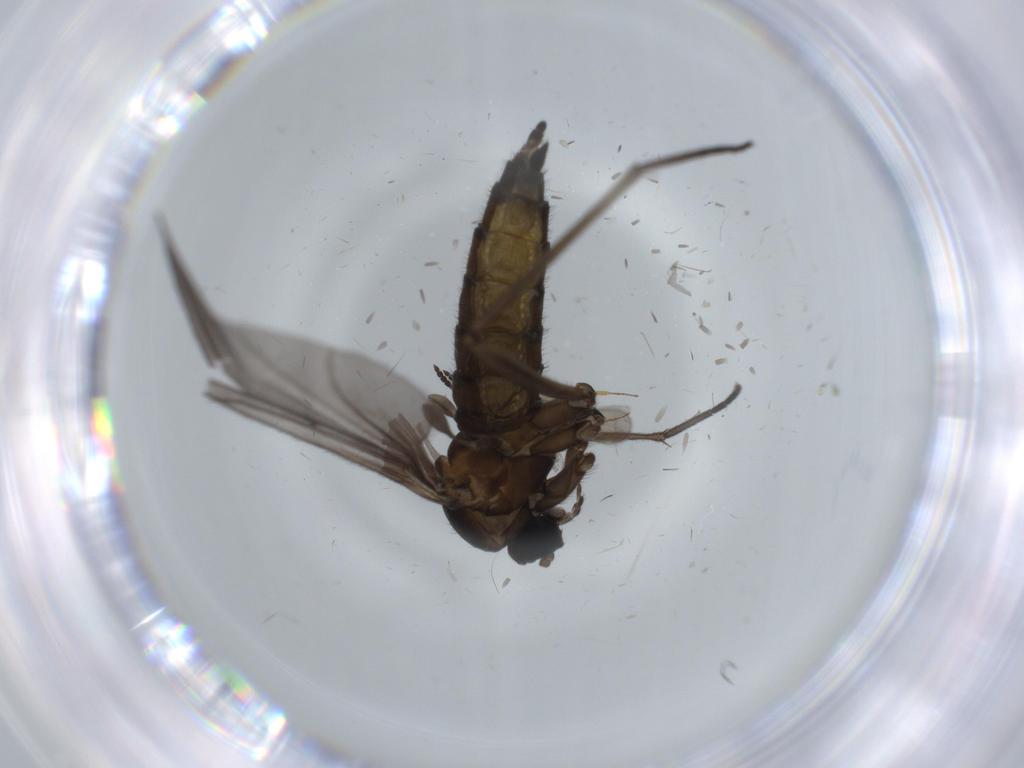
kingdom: Animalia
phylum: Arthropoda
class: Insecta
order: Diptera
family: Sciaridae
